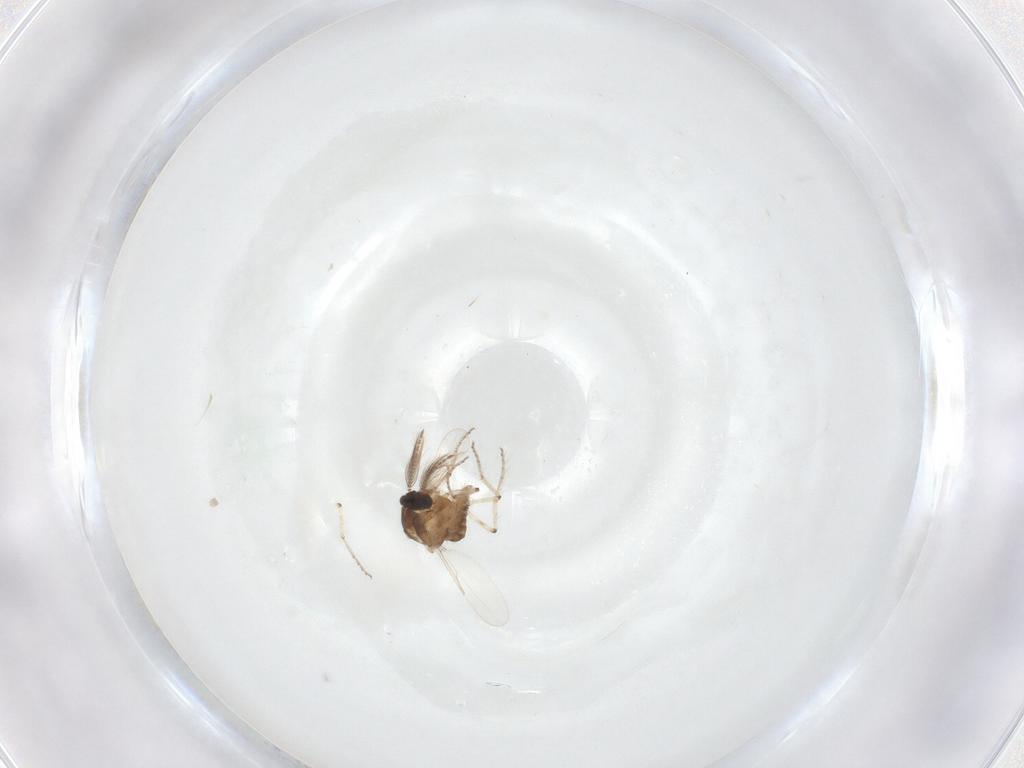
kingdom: Animalia
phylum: Arthropoda
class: Insecta
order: Diptera
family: Ceratopogonidae
